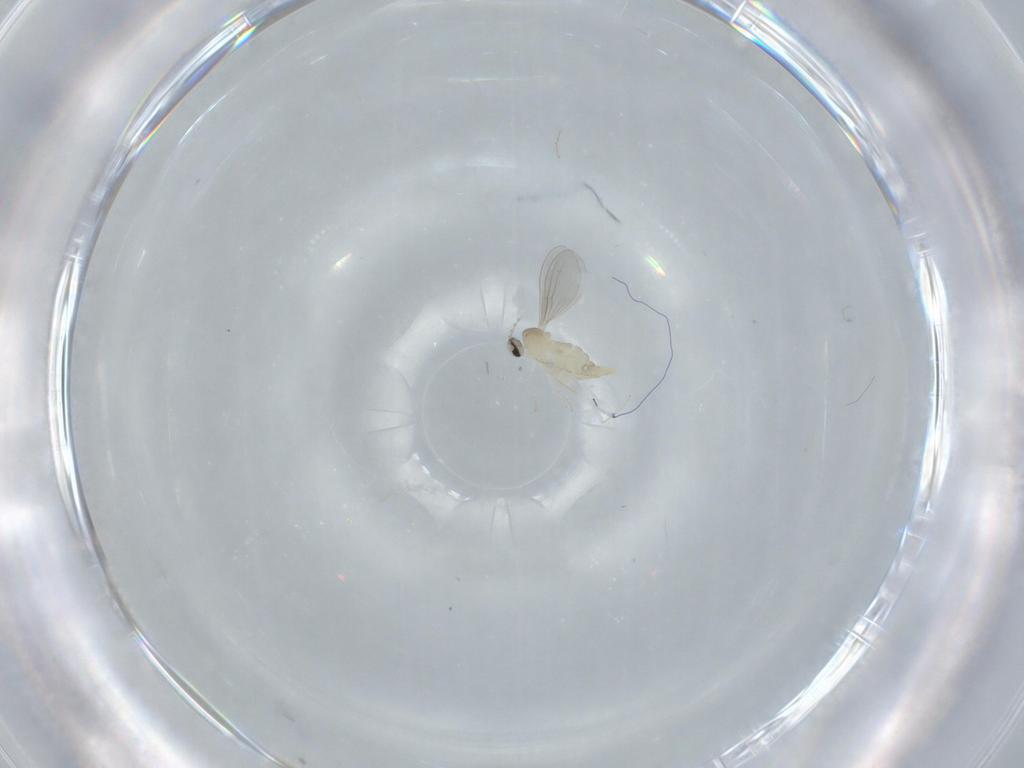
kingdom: Animalia
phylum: Arthropoda
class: Insecta
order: Diptera
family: Cecidomyiidae
